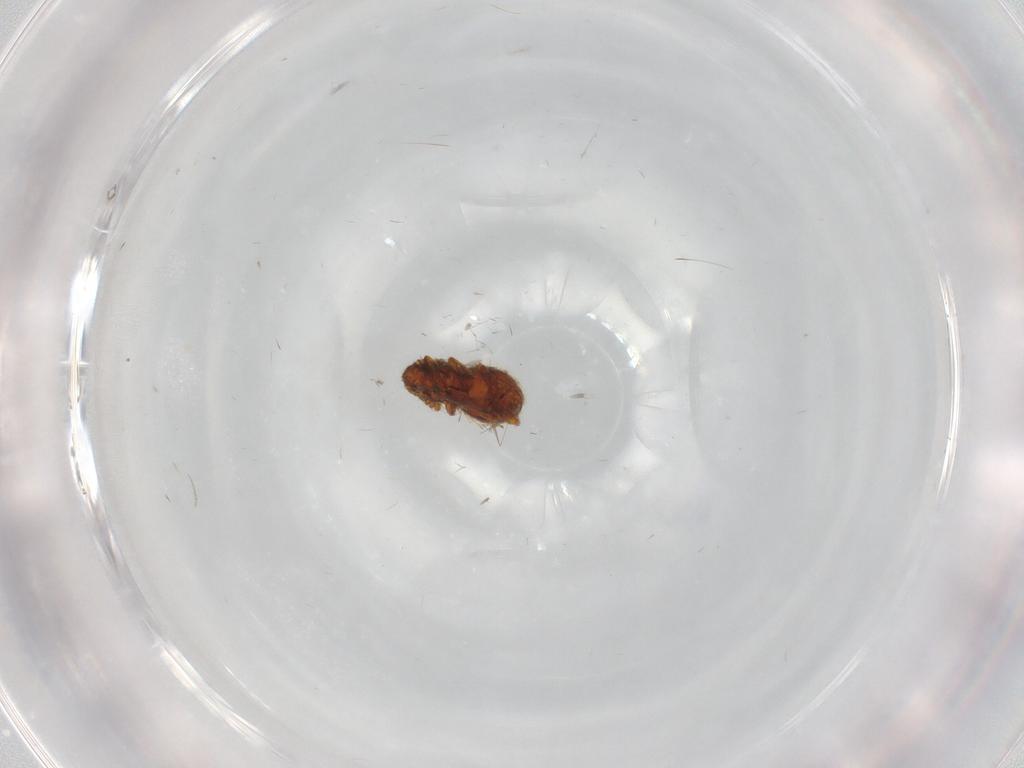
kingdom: Animalia
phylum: Arthropoda
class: Insecta
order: Coleoptera
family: Staphylinidae
